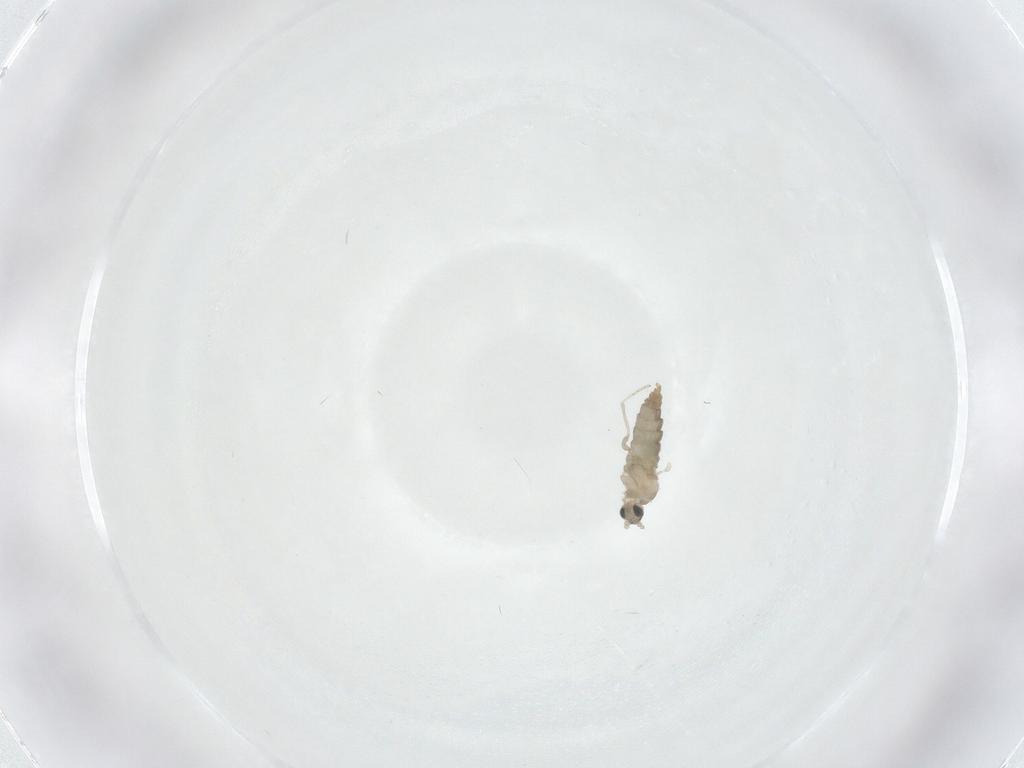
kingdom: Animalia
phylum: Arthropoda
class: Insecta
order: Diptera
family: Cecidomyiidae
